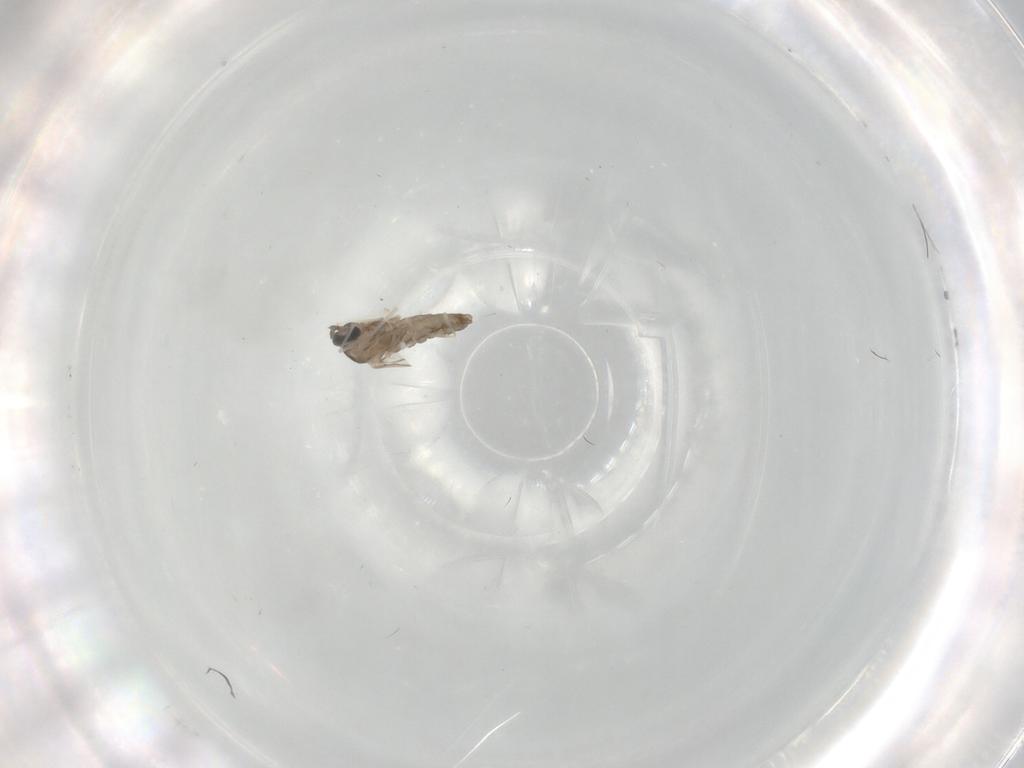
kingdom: Animalia
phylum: Arthropoda
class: Insecta
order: Diptera
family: Cecidomyiidae
